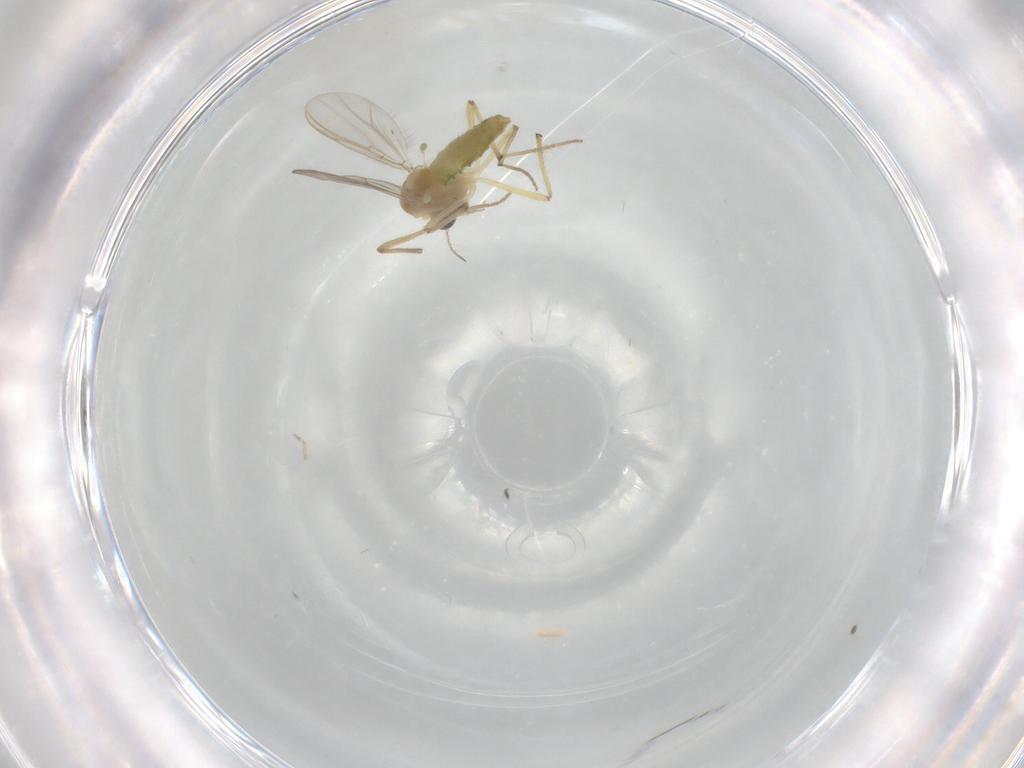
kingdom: Animalia
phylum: Arthropoda
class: Insecta
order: Diptera
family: Chironomidae
